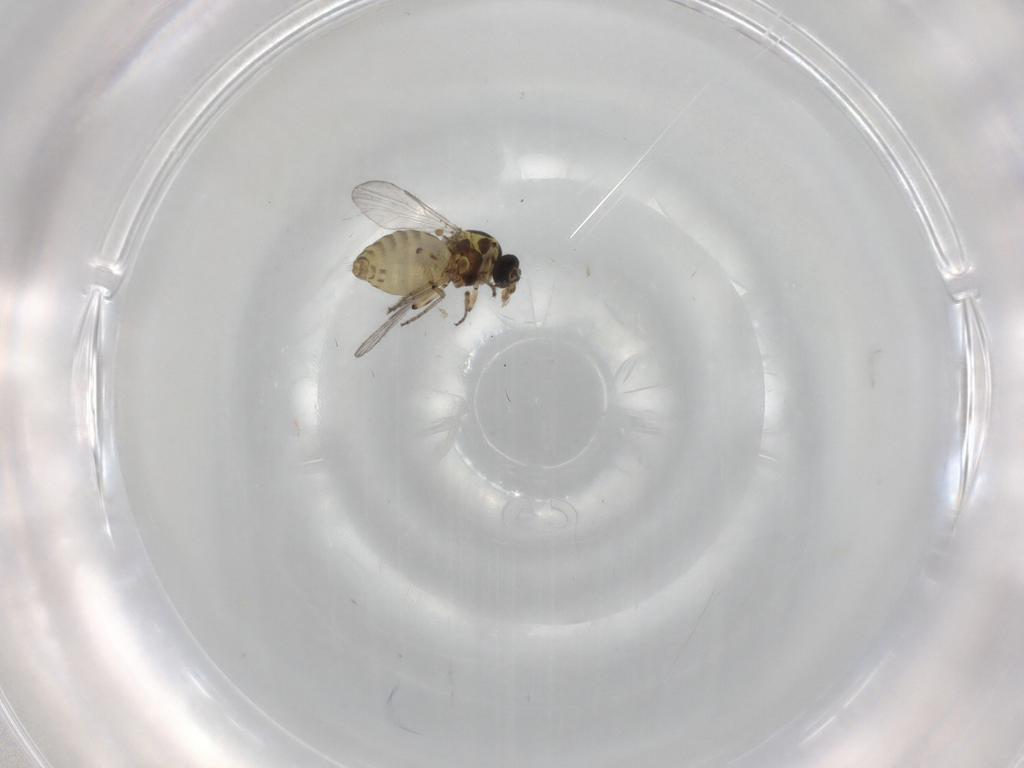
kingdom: Animalia
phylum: Arthropoda
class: Insecta
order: Diptera
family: Ceratopogonidae
